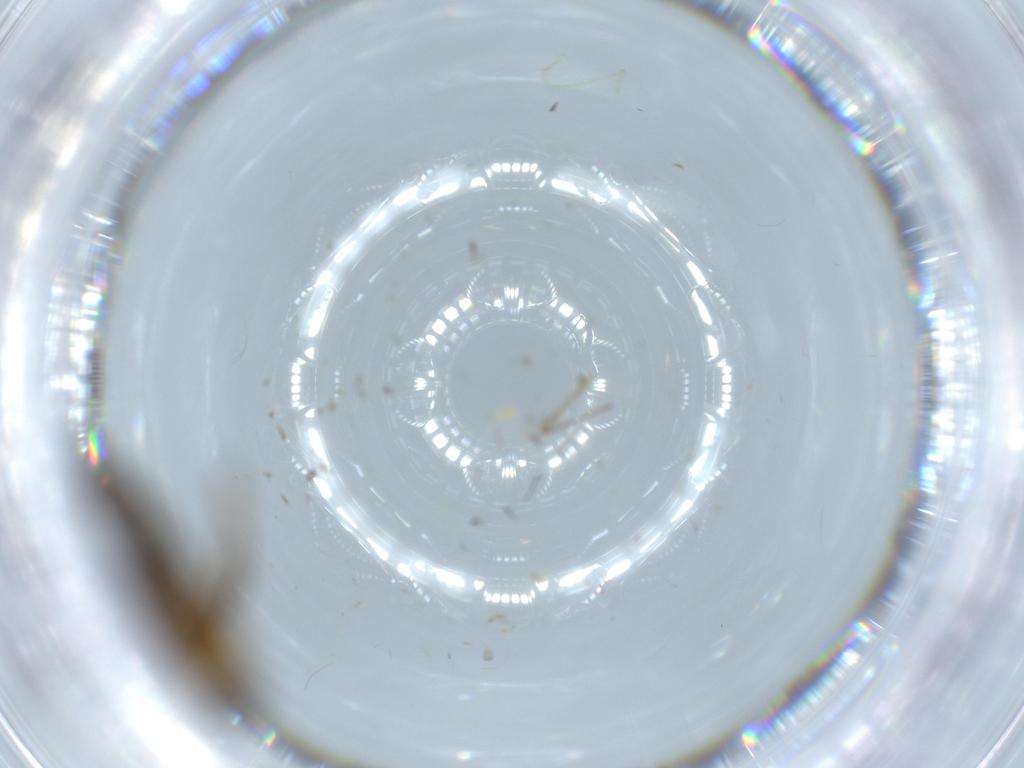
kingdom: Animalia
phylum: Arthropoda
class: Insecta
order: Diptera
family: Sciaridae
